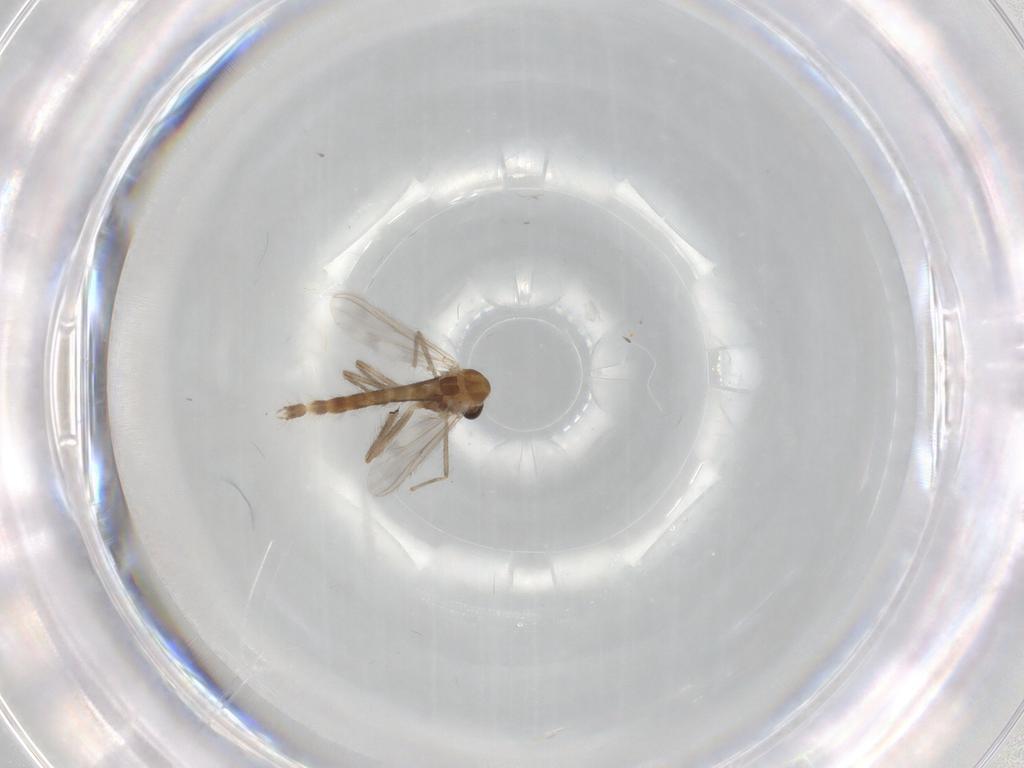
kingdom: Animalia
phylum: Arthropoda
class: Insecta
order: Diptera
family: Chironomidae
